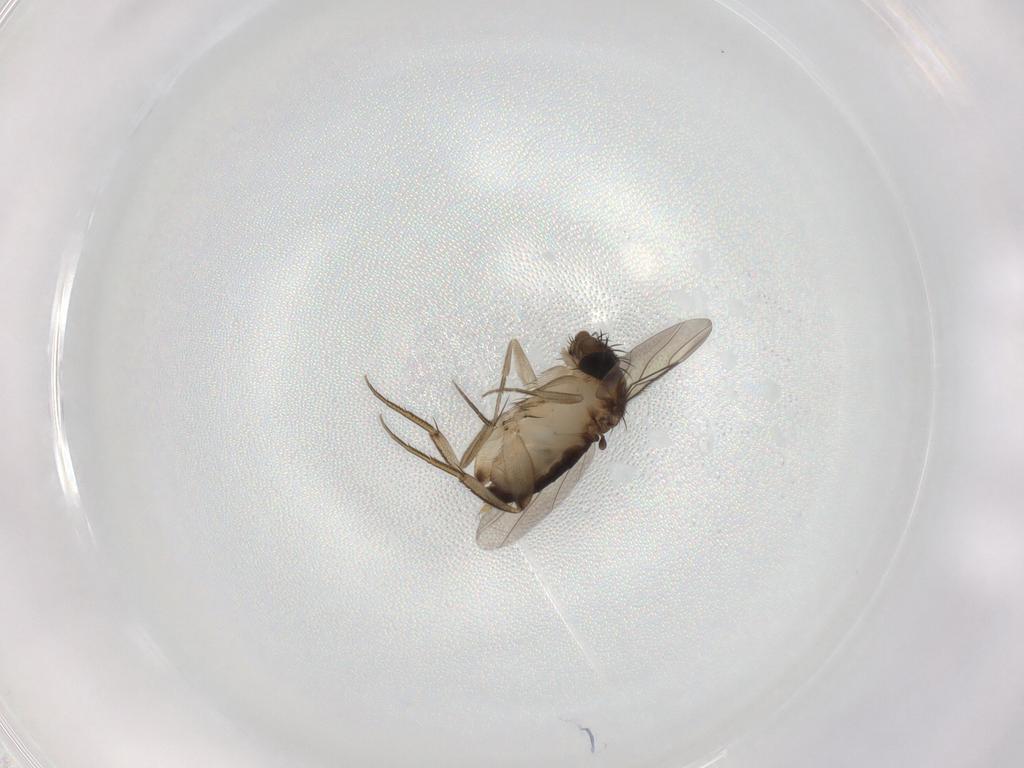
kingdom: Animalia
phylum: Arthropoda
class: Insecta
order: Diptera
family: Phoridae
